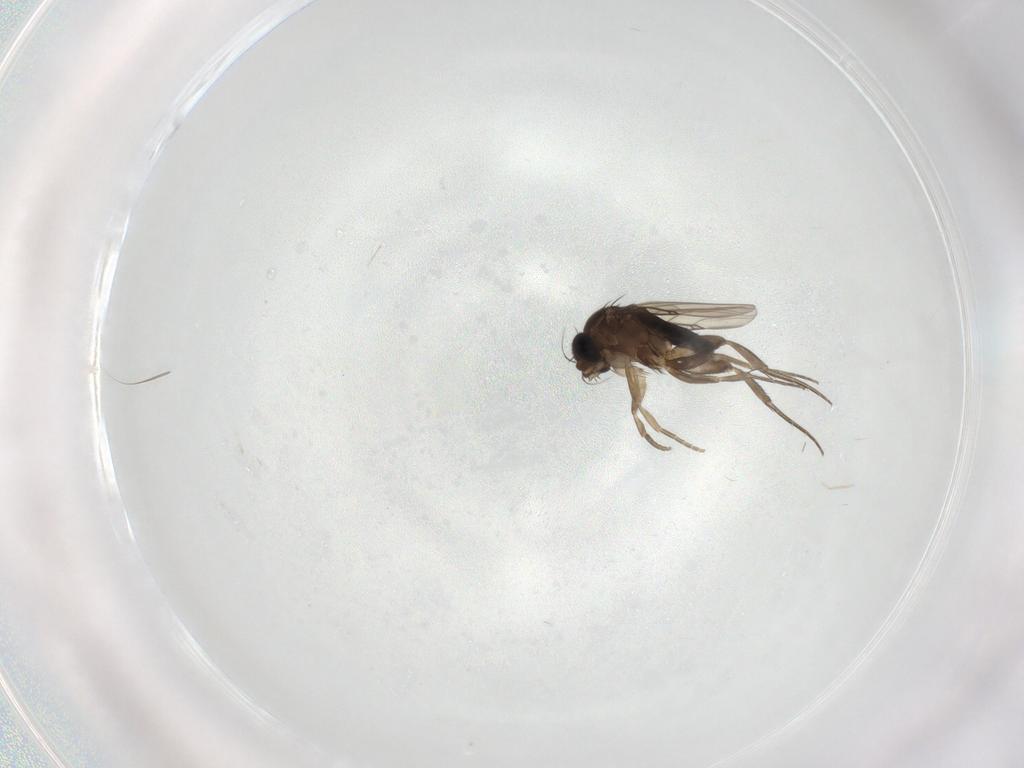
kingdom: Animalia
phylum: Arthropoda
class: Insecta
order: Diptera
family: Phoridae
